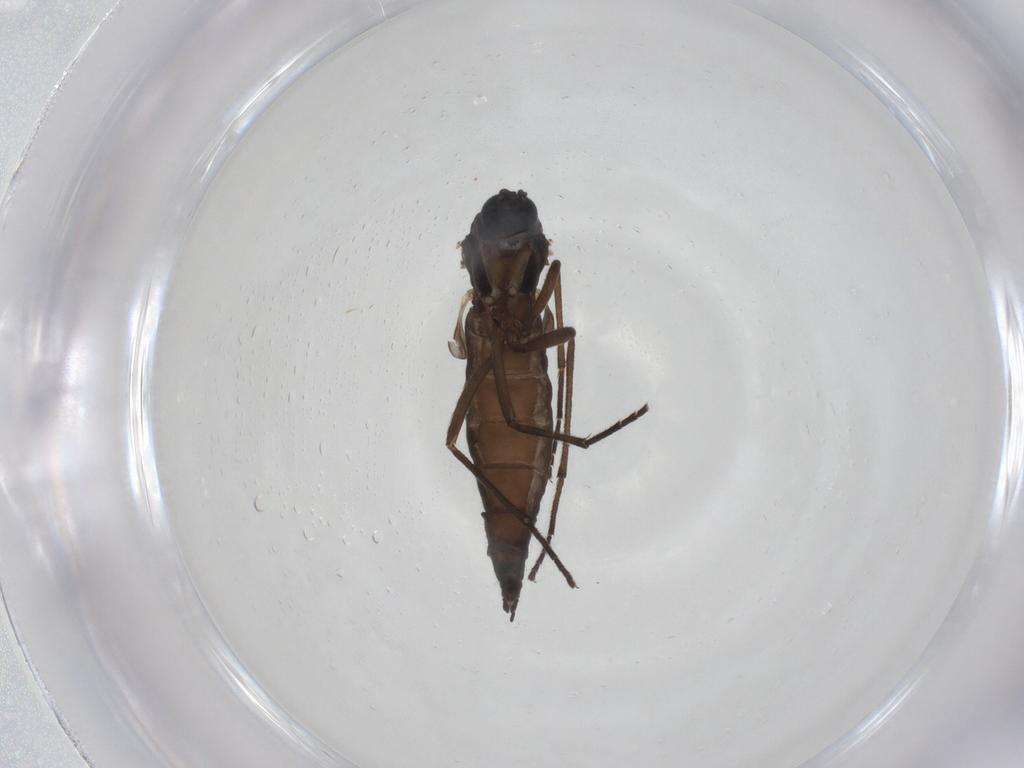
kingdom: Animalia
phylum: Arthropoda
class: Insecta
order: Diptera
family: Sciaridae
